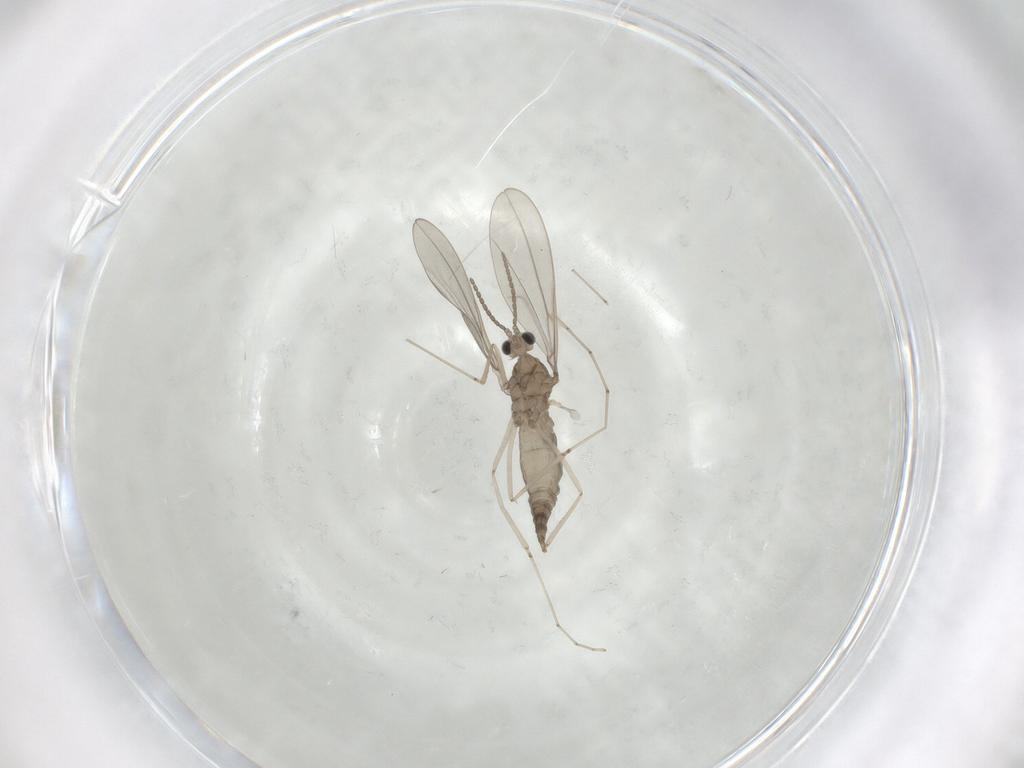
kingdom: Animalia
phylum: Arthropoda
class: Insecta
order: Diptera
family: Cecidomyiidae
